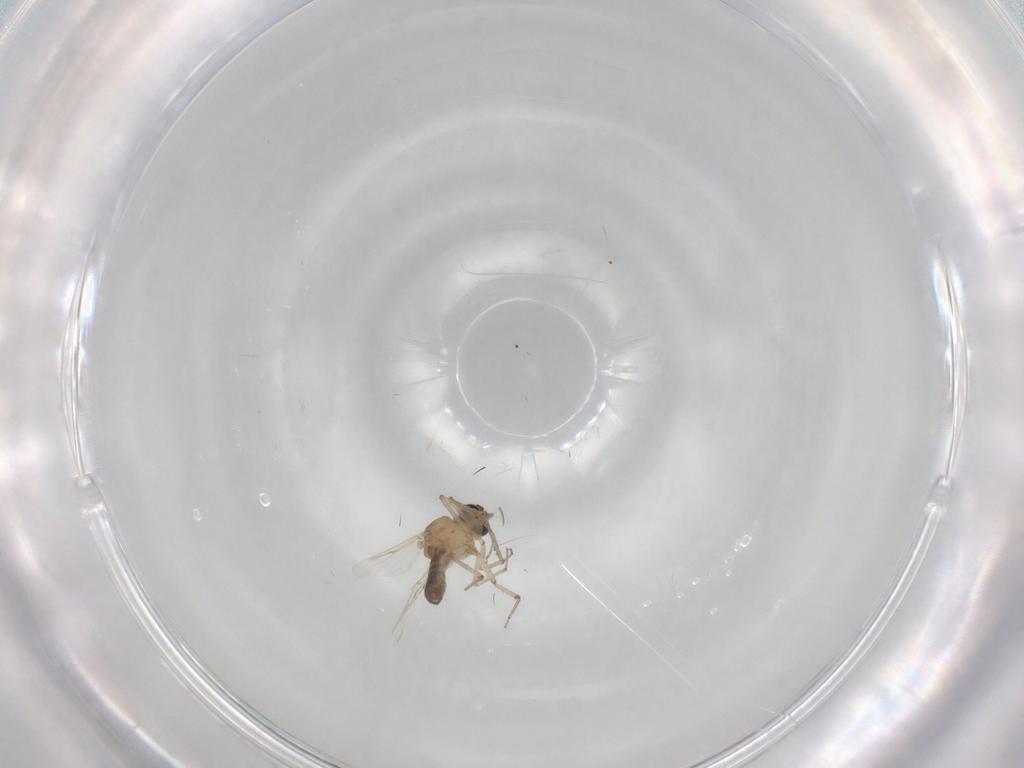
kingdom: Animalia
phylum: Arthropoda
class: Insecta
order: Diptera
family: Ceratopogonidae
